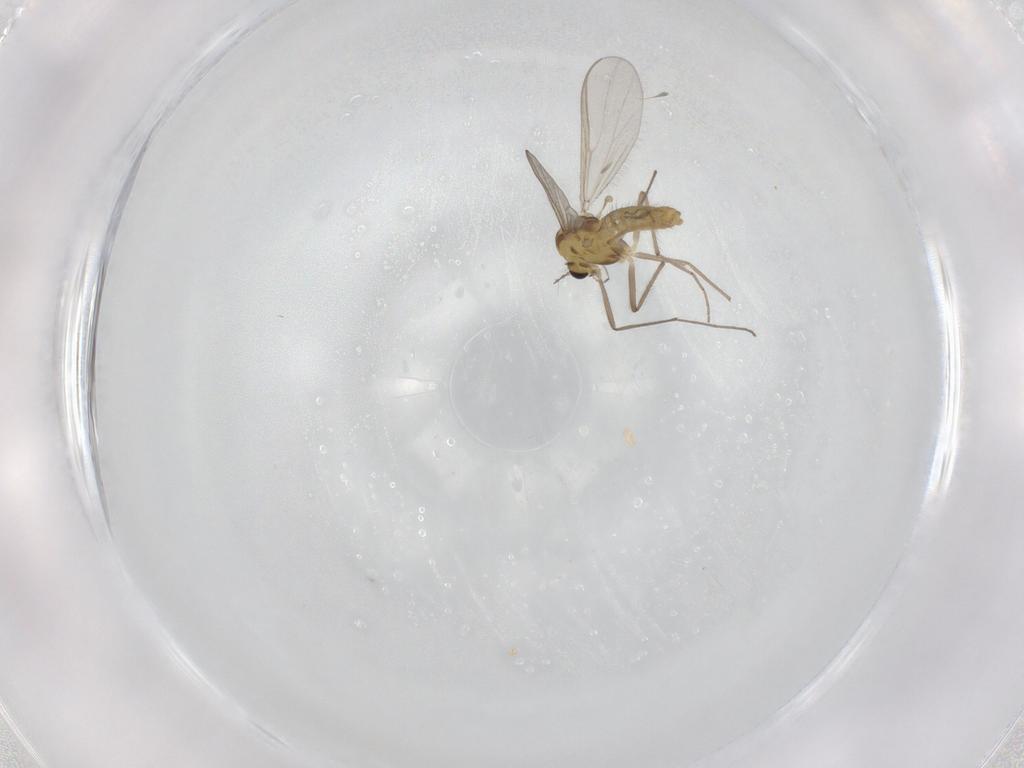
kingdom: Animalia
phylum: Arthropoda
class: Insecta
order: Diptera
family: Chironomidae
